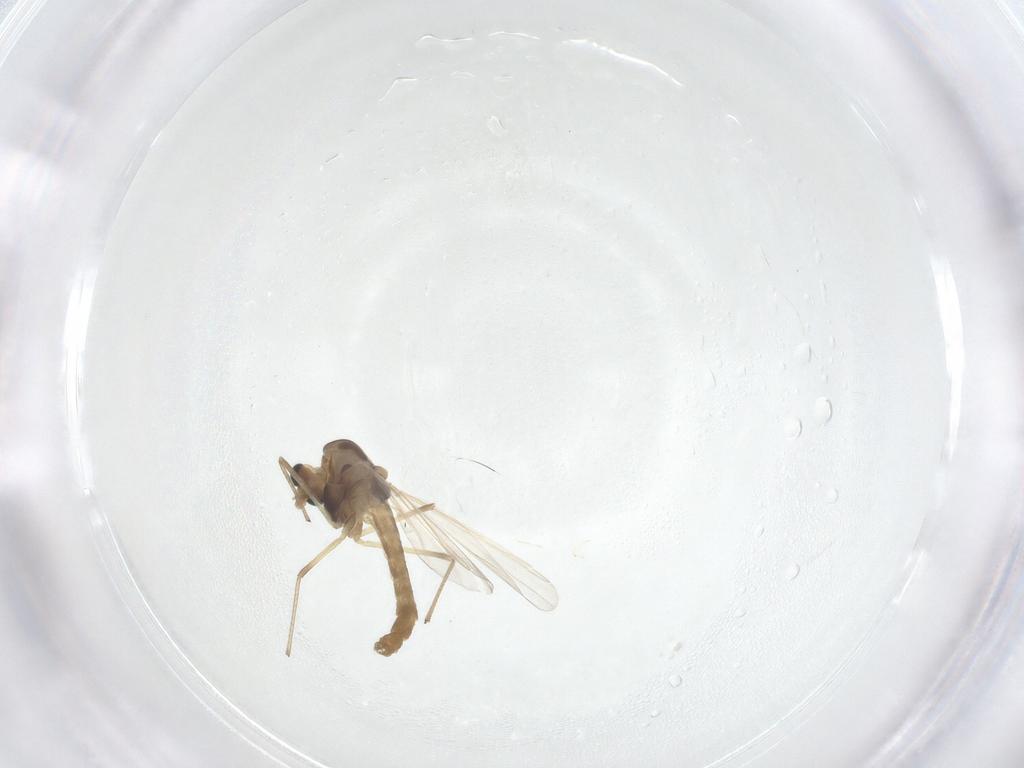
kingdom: Animalia
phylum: Arthropoda
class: Insecta
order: Diptera
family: Chironomidae
